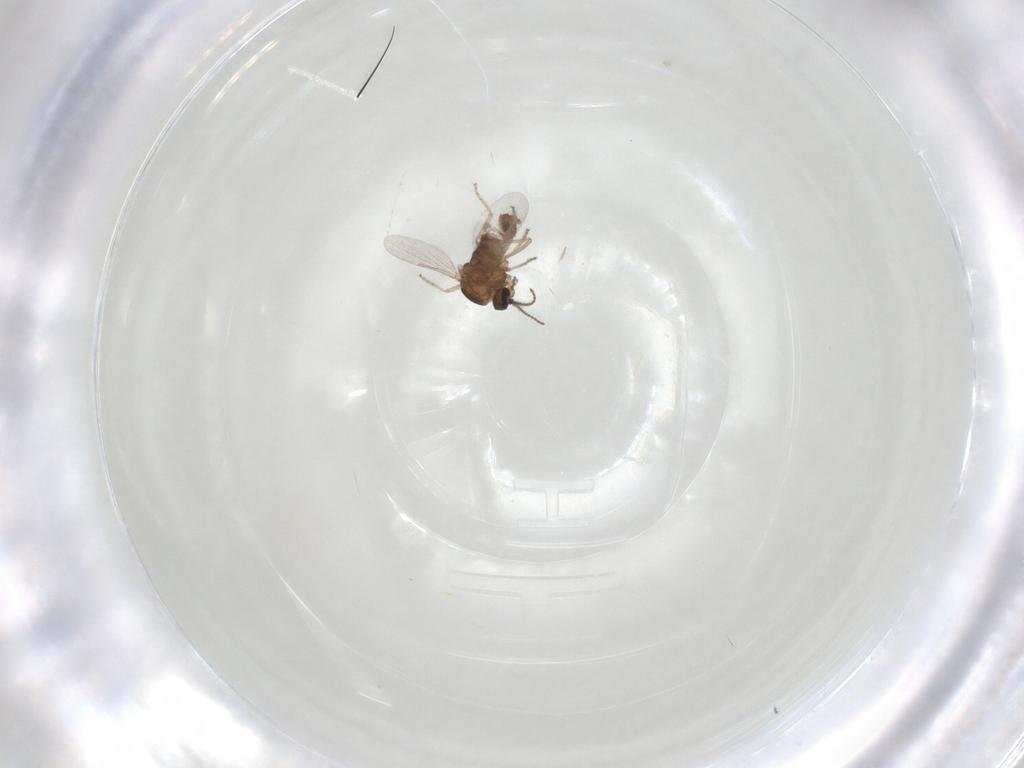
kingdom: Animalia
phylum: Arthropoda
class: Insecta
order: Diptera
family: Ceratopogonidae
